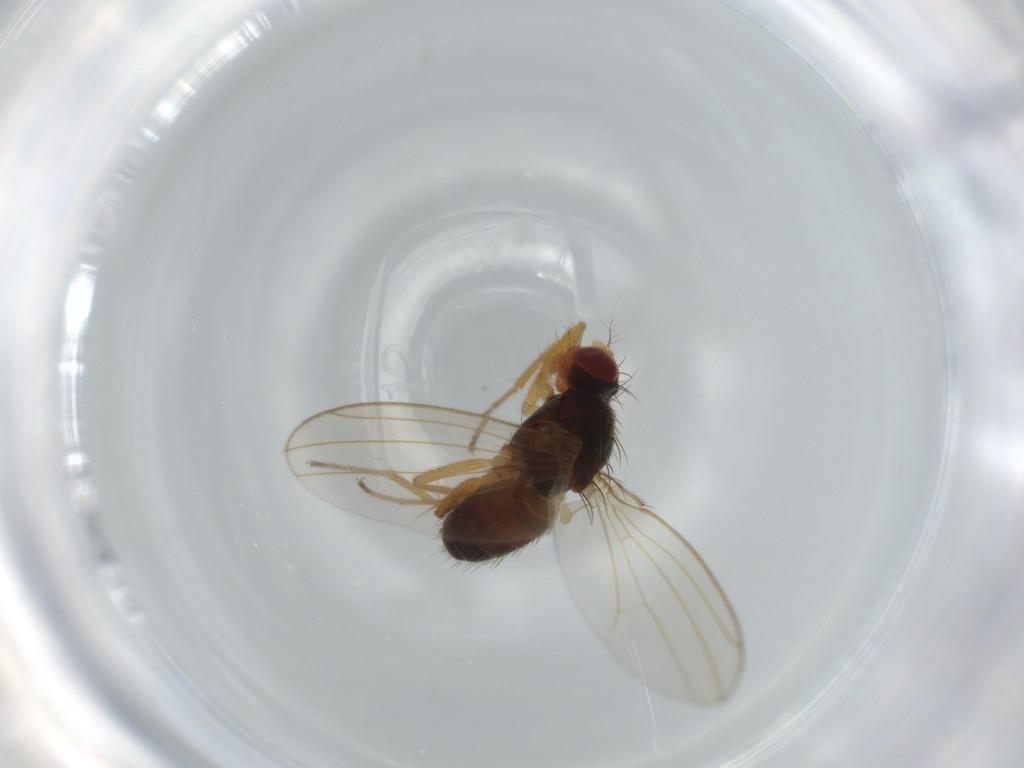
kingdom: Animalia
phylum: Arthropoda
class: Insecta
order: Diptera
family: Drosophilidae
